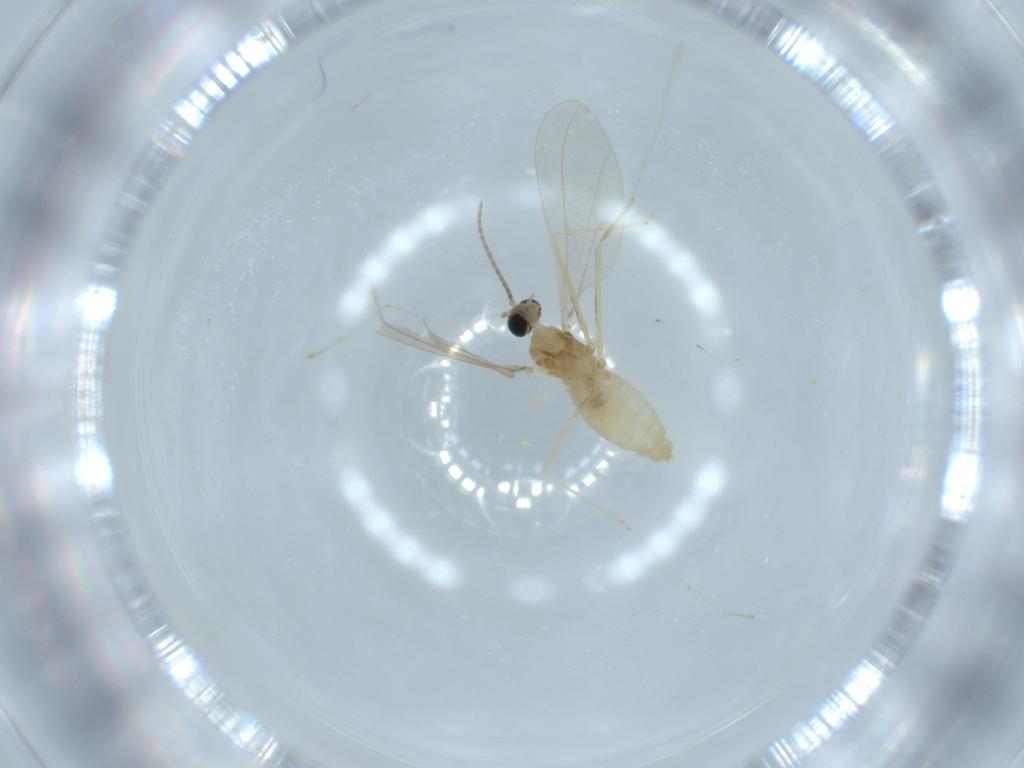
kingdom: Animalia
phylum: Arthropoda
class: Insecta
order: Diptera
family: Cecidomyiidae
